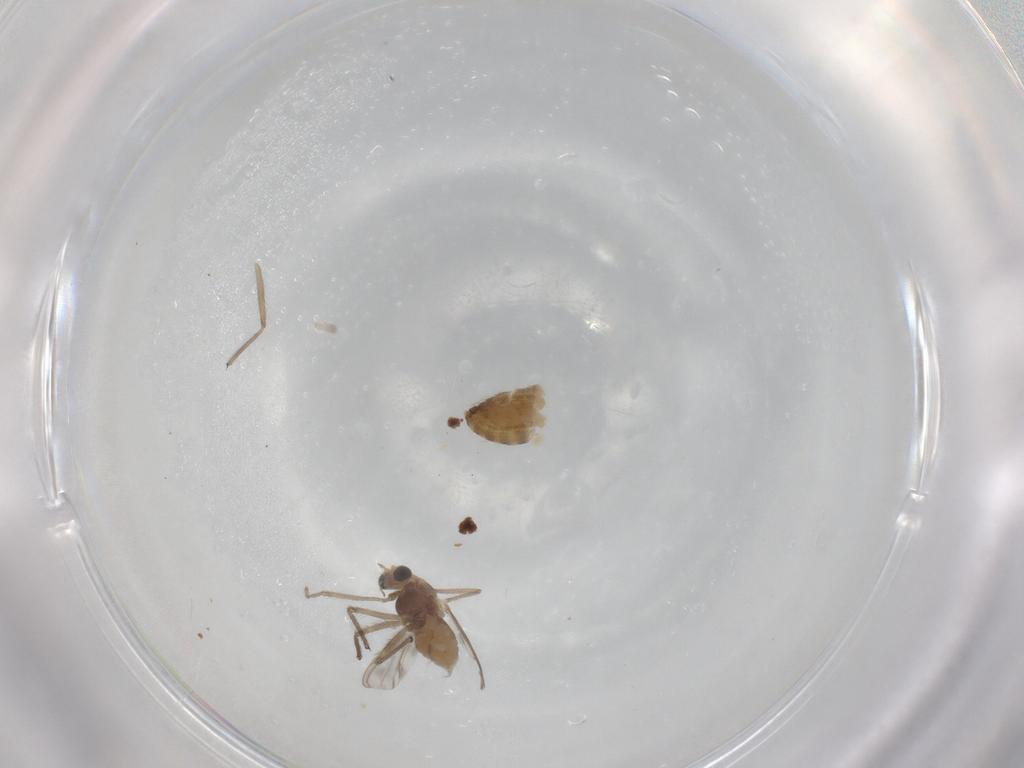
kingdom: Animalia
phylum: Arthropoda
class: Insecta
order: Diptera
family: Chironomidae
